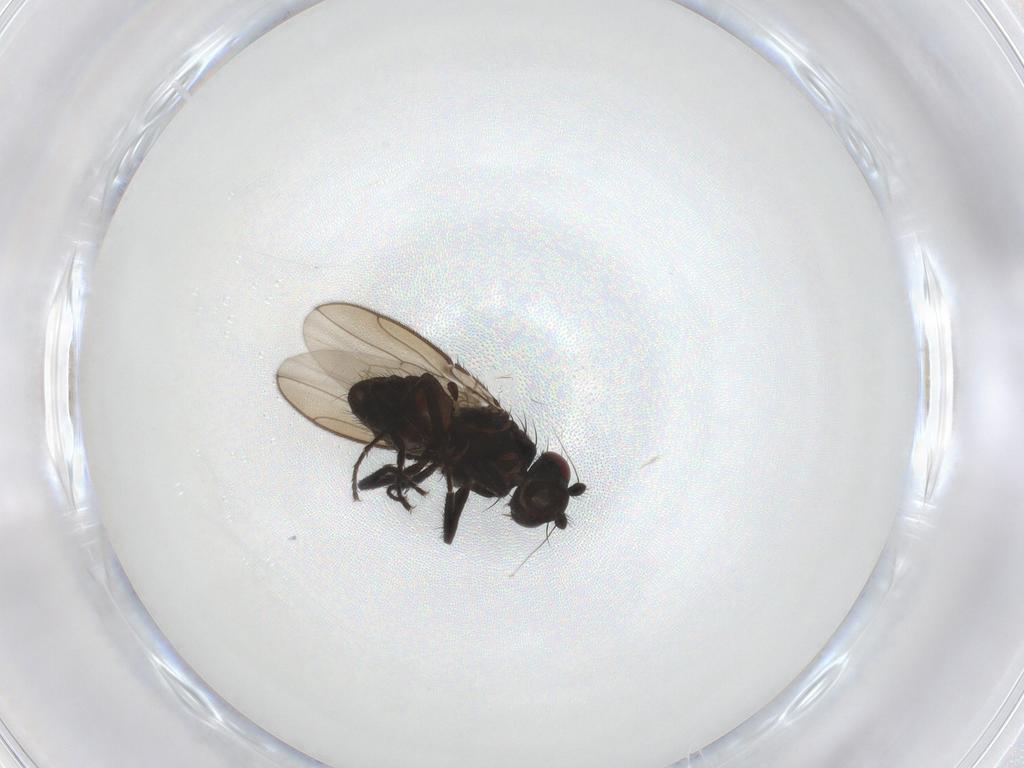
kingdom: Animalia
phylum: Arthropoda
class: Insecta
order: Diptera
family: Sphaeroceridae
